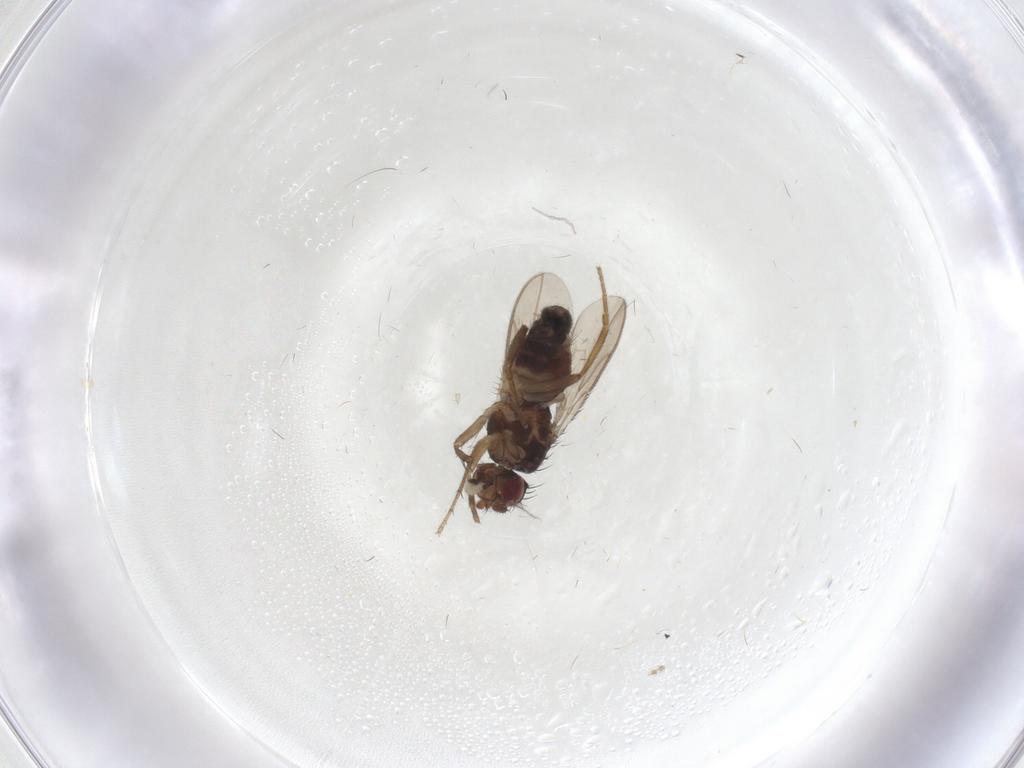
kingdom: Animalia
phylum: Arthropoda
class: Insecta
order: Diptera
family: Sphaeroceridae
